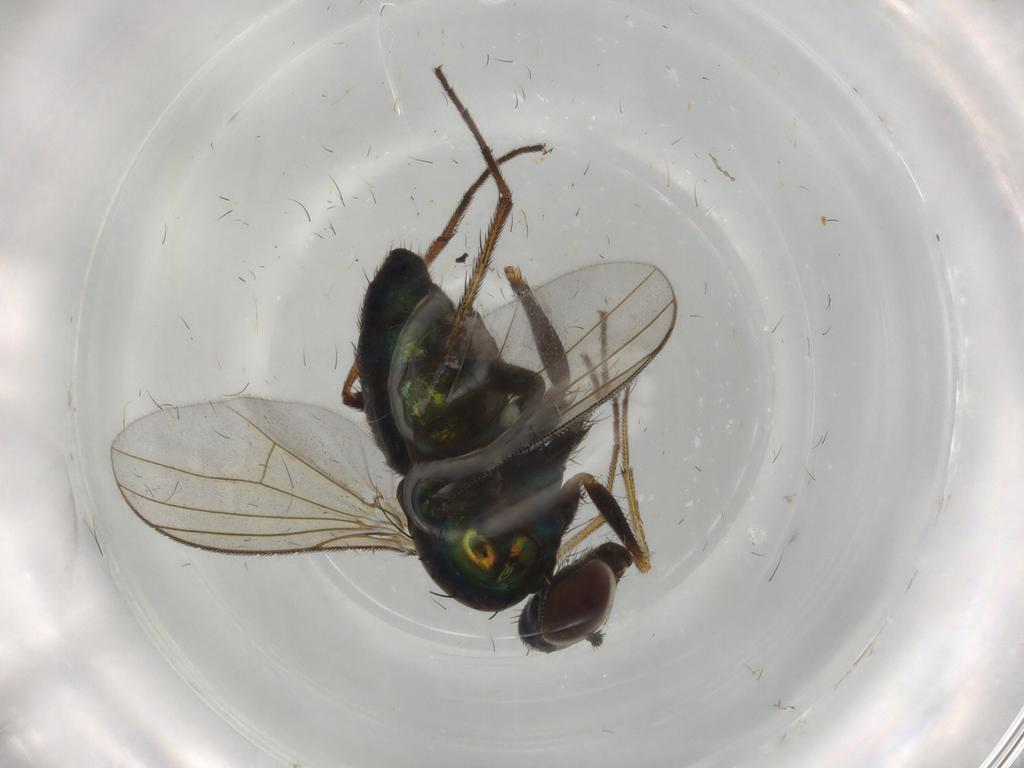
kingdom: Animalia
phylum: Arthropoda
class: Insecta
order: Diptera
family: Dolichopodidae
